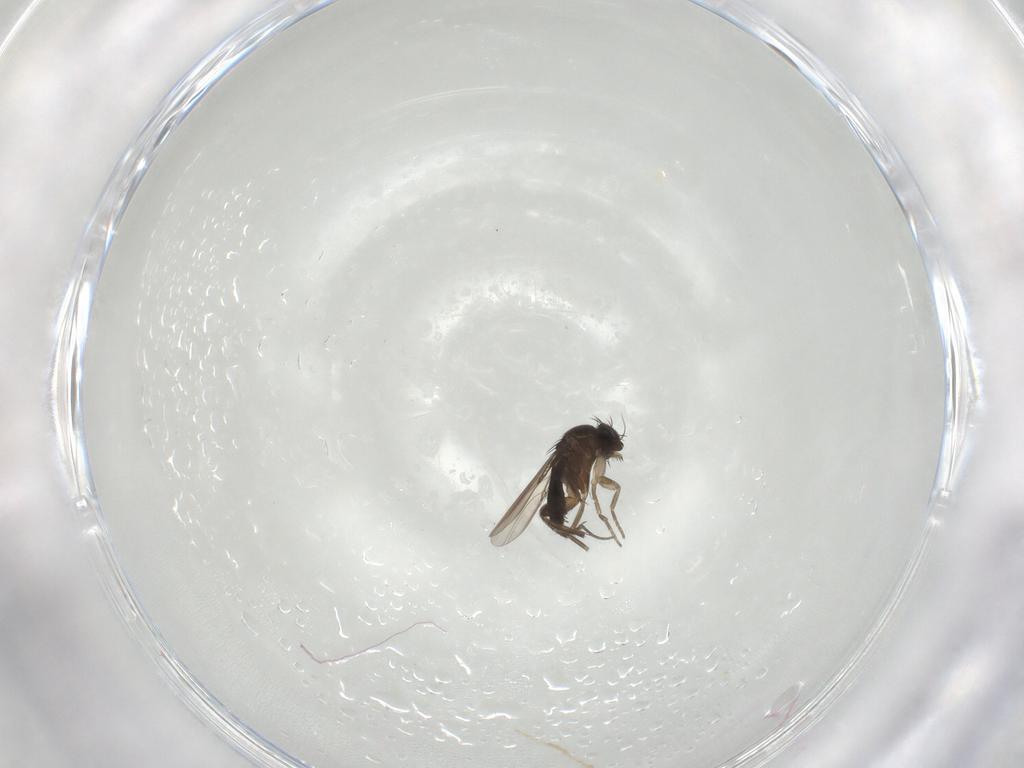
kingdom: Animalia
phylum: Arthropoda
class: Insecta
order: Diptera
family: Phoridae
